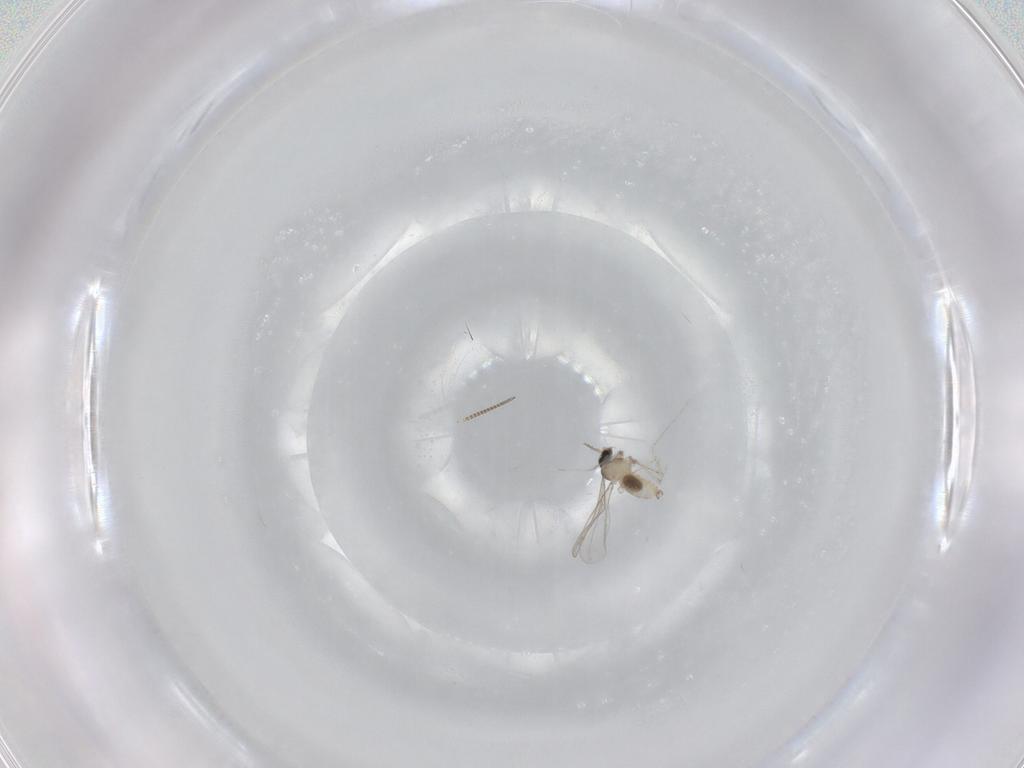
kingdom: Animalia
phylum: Arthropoda
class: Insecta
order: Diptera
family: Cecidomyiidae
